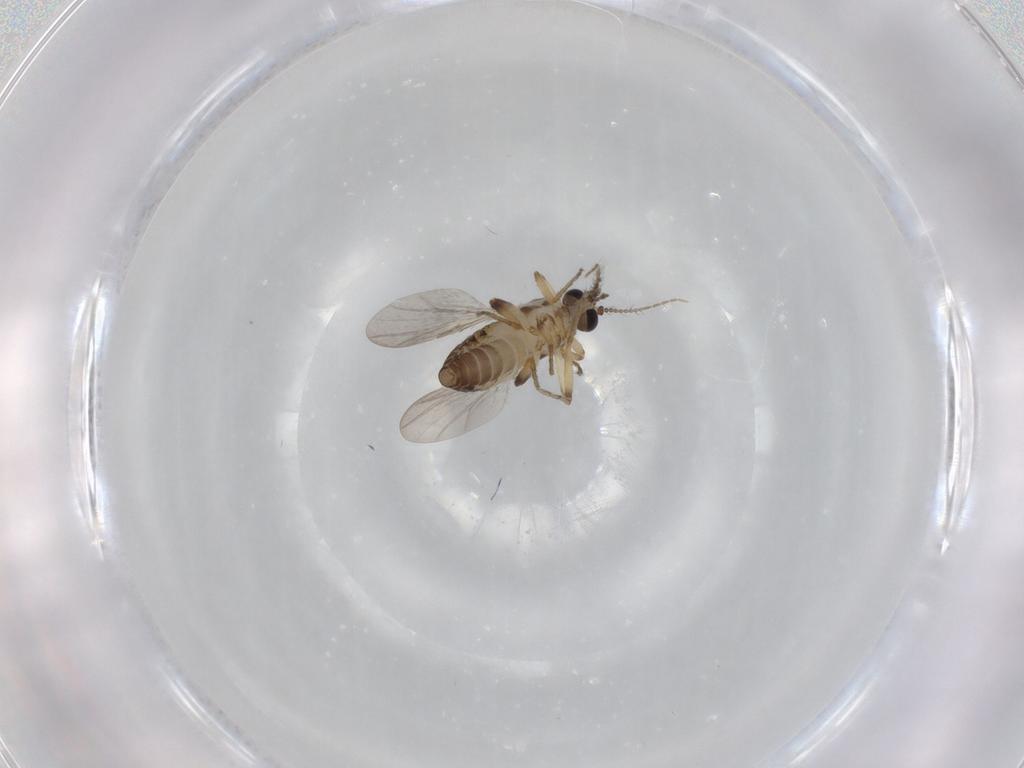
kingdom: Animalia
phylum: Arthropoda
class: Insecta
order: Diptera
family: Ceratopogonidae
